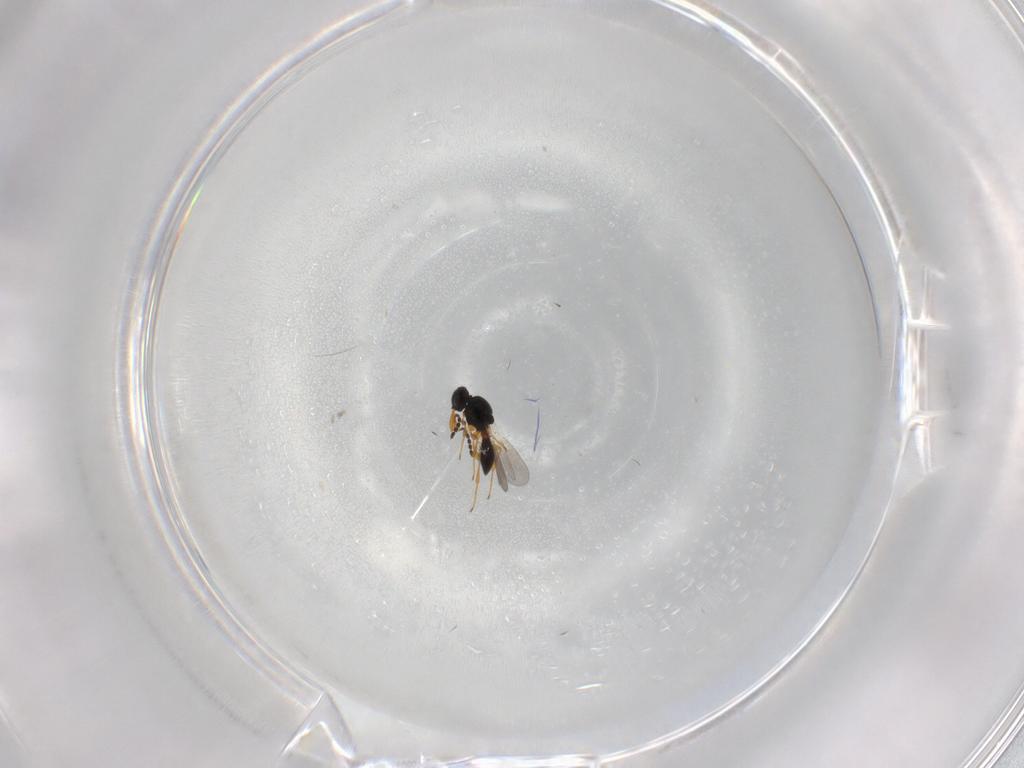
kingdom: Animalia
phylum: Arthropoda
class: Insecta
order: Hymenoptera
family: Platygastridae
